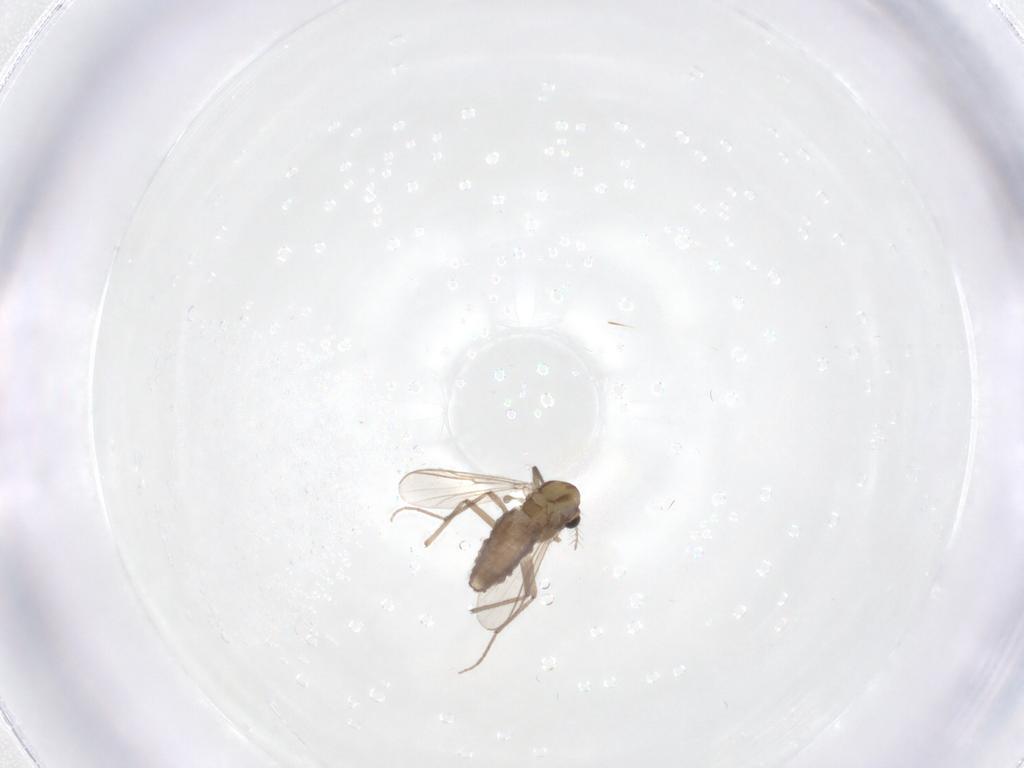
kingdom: Animalia
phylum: Arthropoda
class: Insecta
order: Diptera
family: Chironomidae
